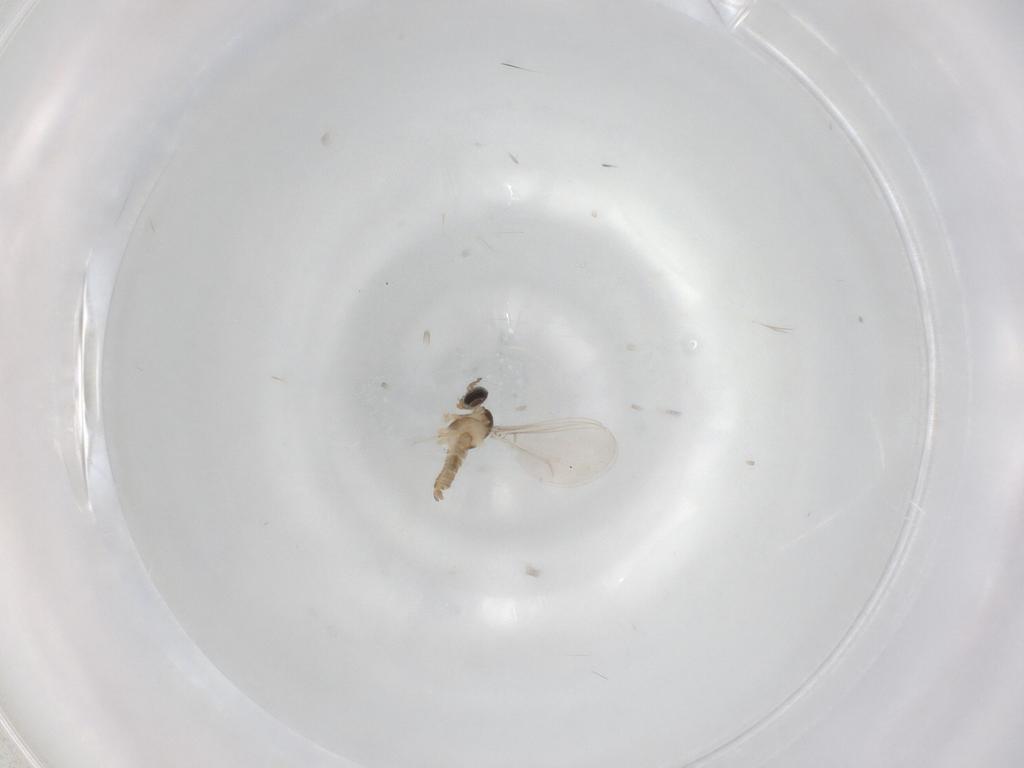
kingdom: Animalia
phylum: Arthropoda
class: Insecta
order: Diptera
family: Cecidomyiidae
